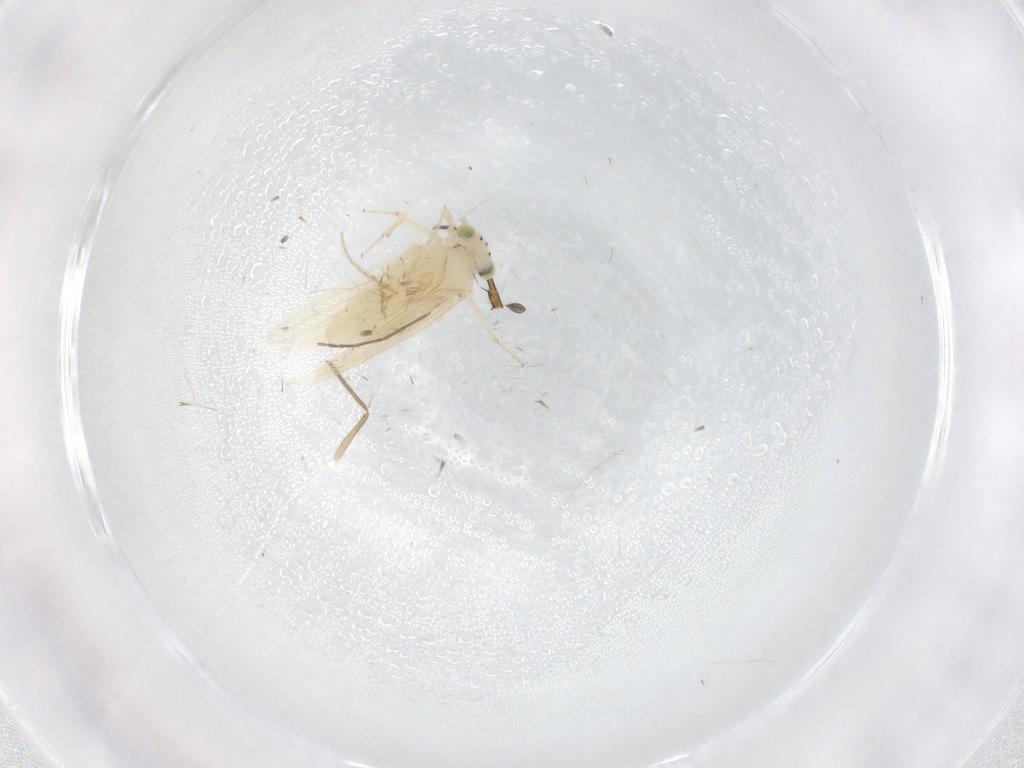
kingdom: Animalia
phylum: Arthropoda
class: Insecta
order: Psocodea
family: Lepidopsocidae
